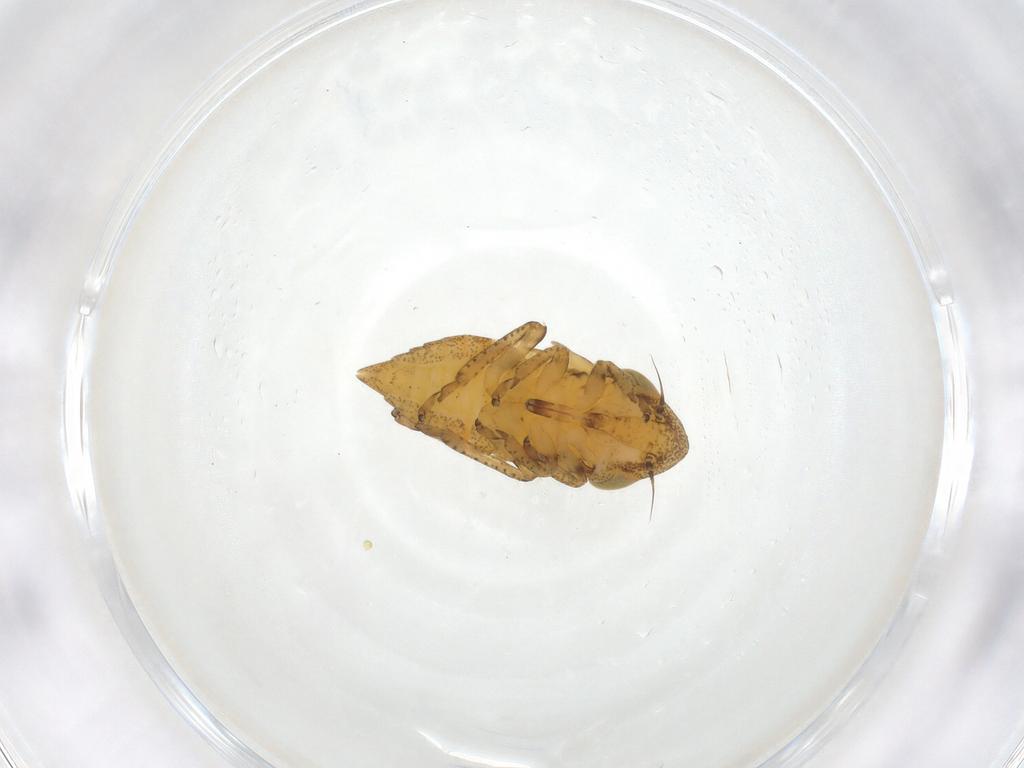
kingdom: Animalia
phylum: Arthropoda
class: Insecta
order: Hemiptera
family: Cicadellidae
